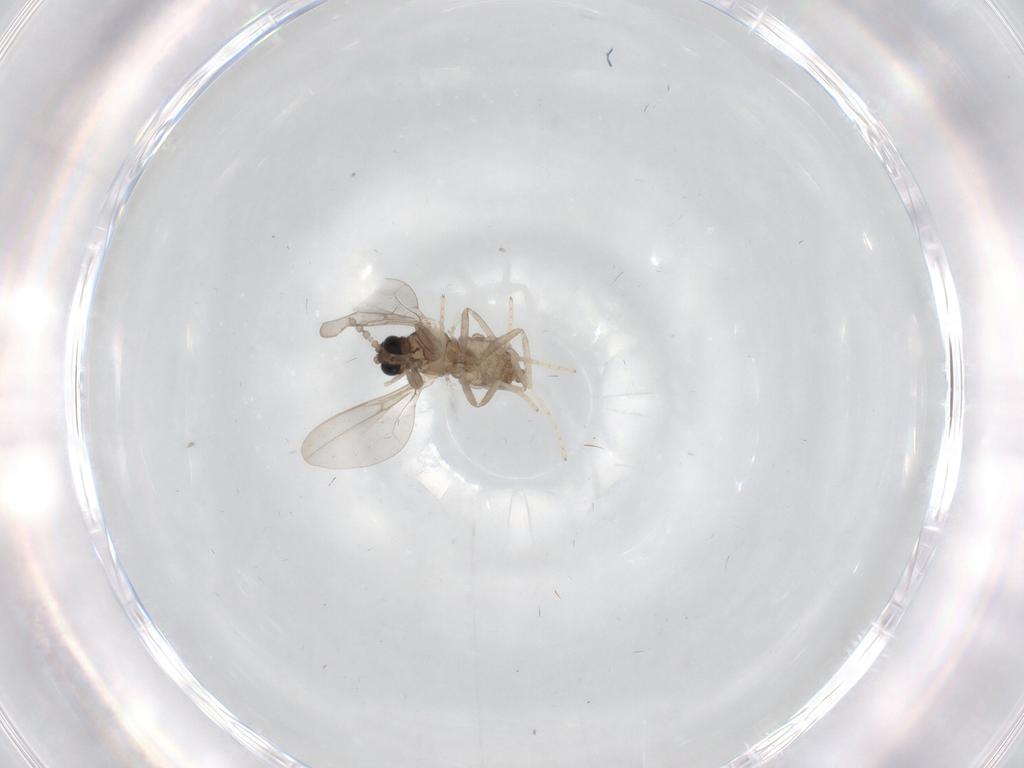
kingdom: Animalia
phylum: Arthropoda
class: Insecta
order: Diptera
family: Cecidomyiidae
